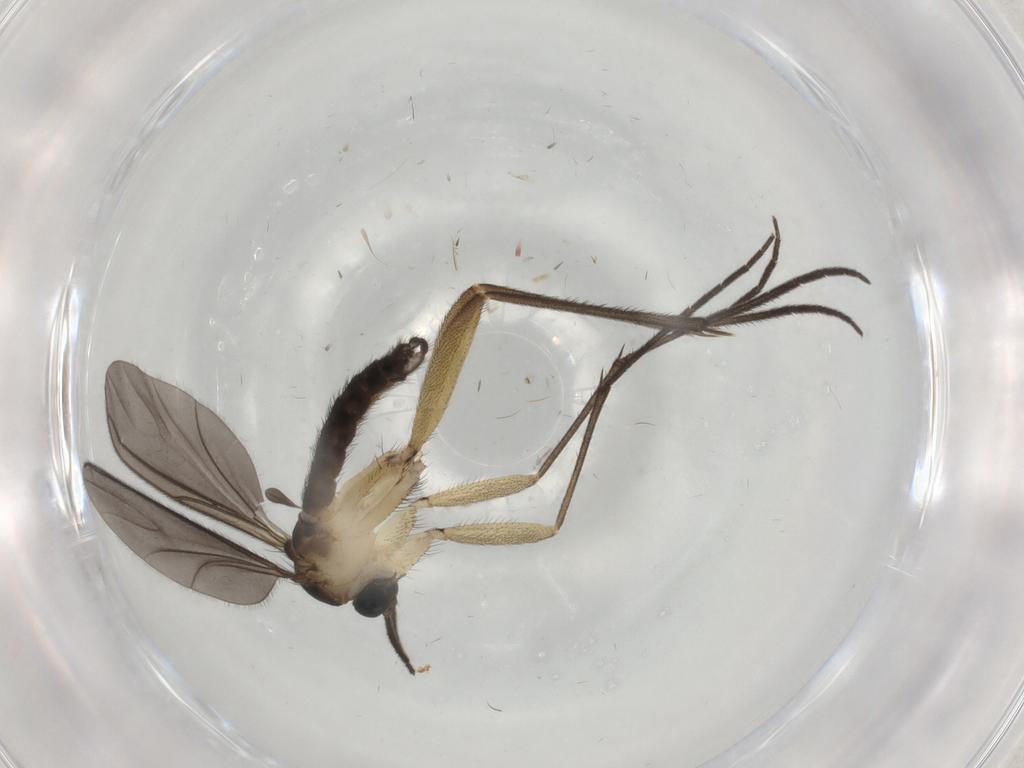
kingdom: Animalia
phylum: Arthropoda
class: Insecta
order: Diptera
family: Sciaridae
